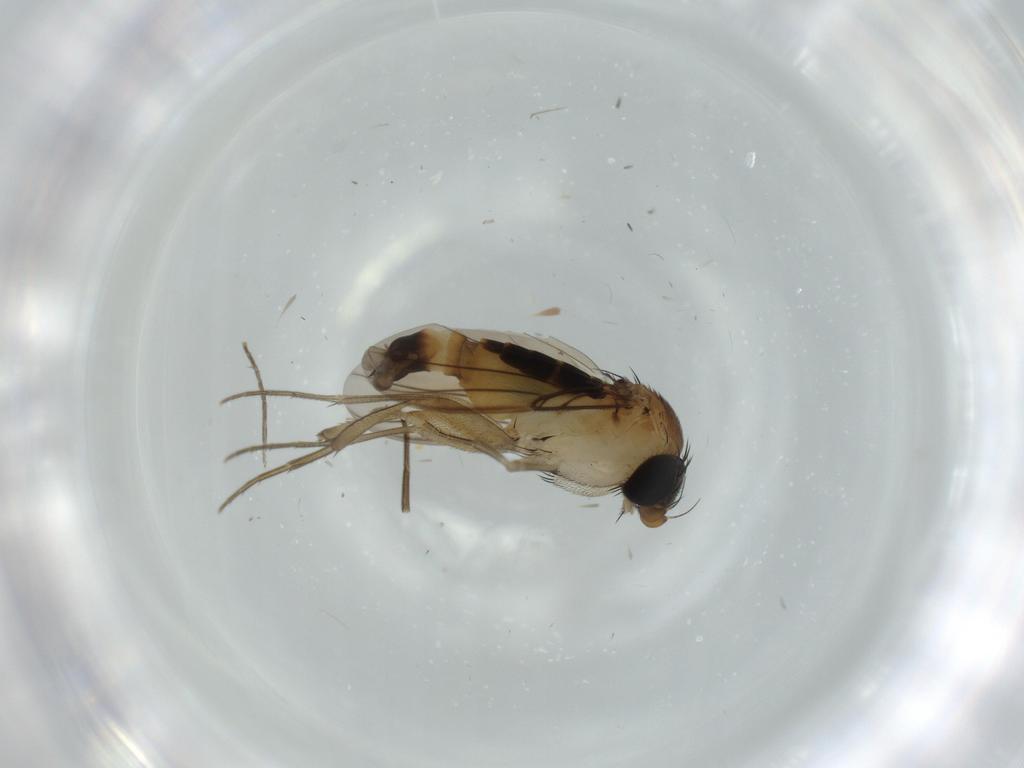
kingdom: Animalia
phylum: Arthropoda
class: Insecta
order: Diptera
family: Phoridae
